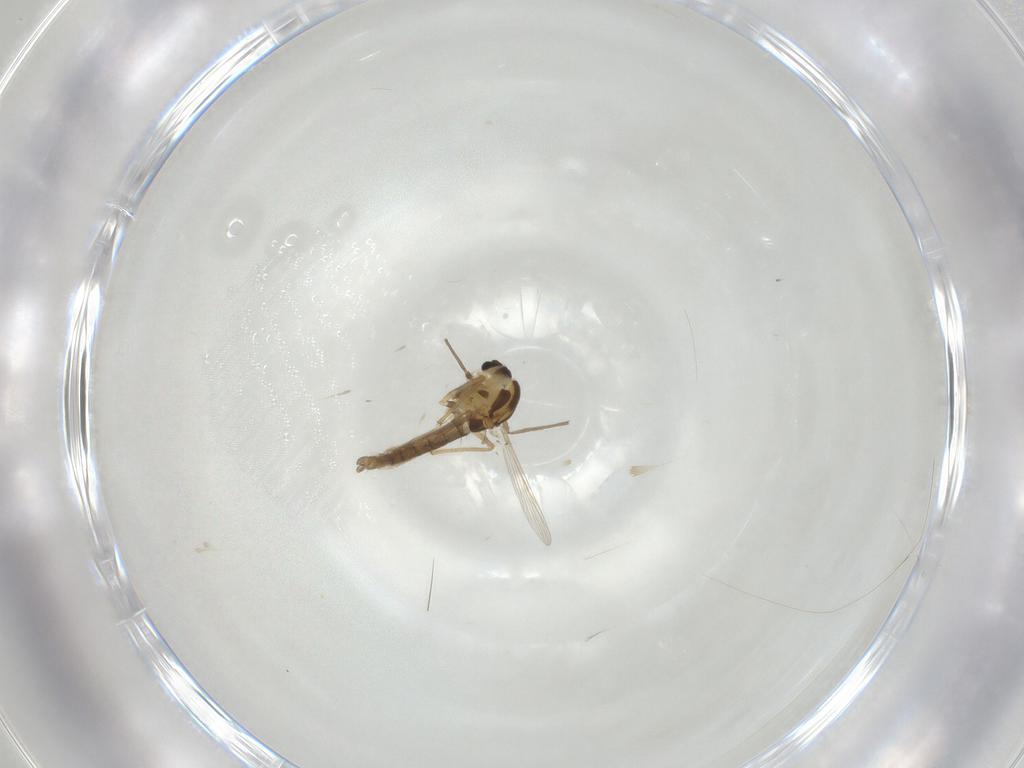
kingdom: Animalia
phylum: Arthropoda
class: Insecta
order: Diptera
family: Chironomidae
